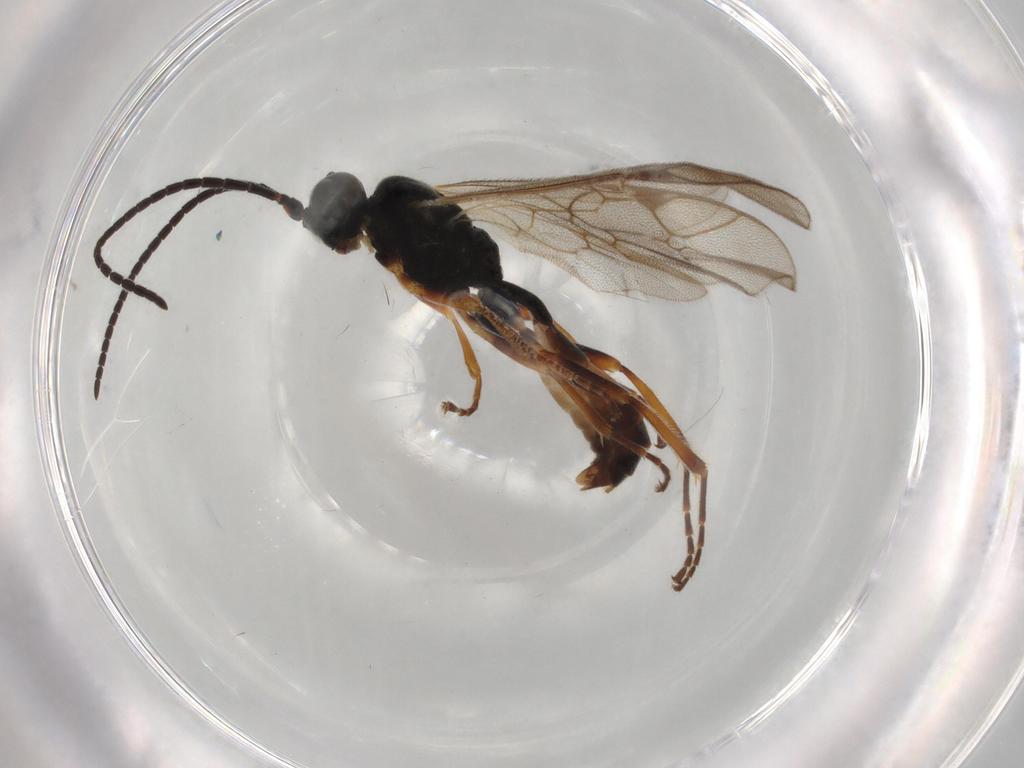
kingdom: Animalia
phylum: Arthropoda
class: Insecta
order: Hymenoptera
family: Ichneumonidae
